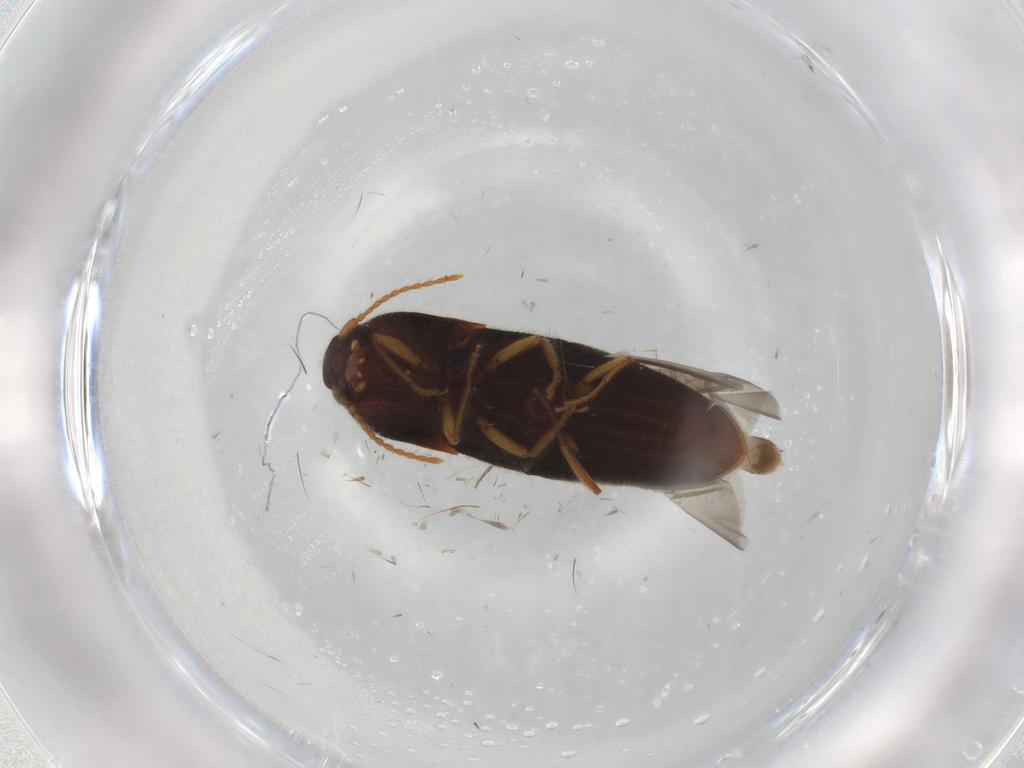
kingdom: Animalia
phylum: Arthropoda
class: Insecta
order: Coleoptera
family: Elateridae
